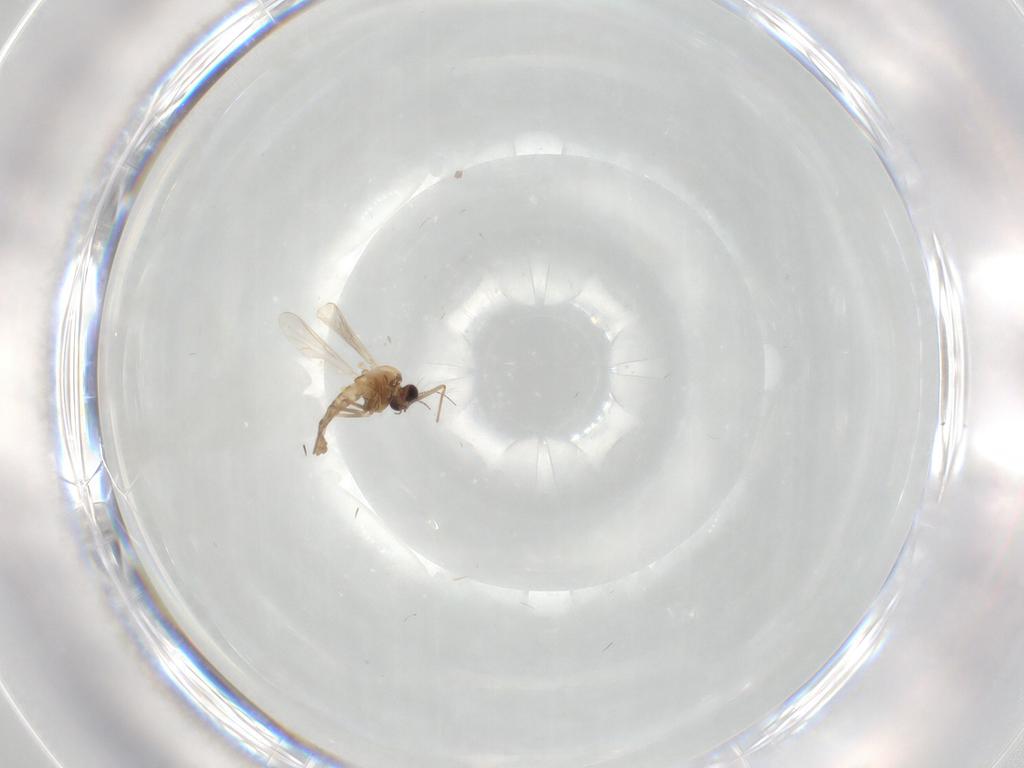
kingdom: Animalia
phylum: Arthropoda
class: Insecta
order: Diptera
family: Chironomidae
